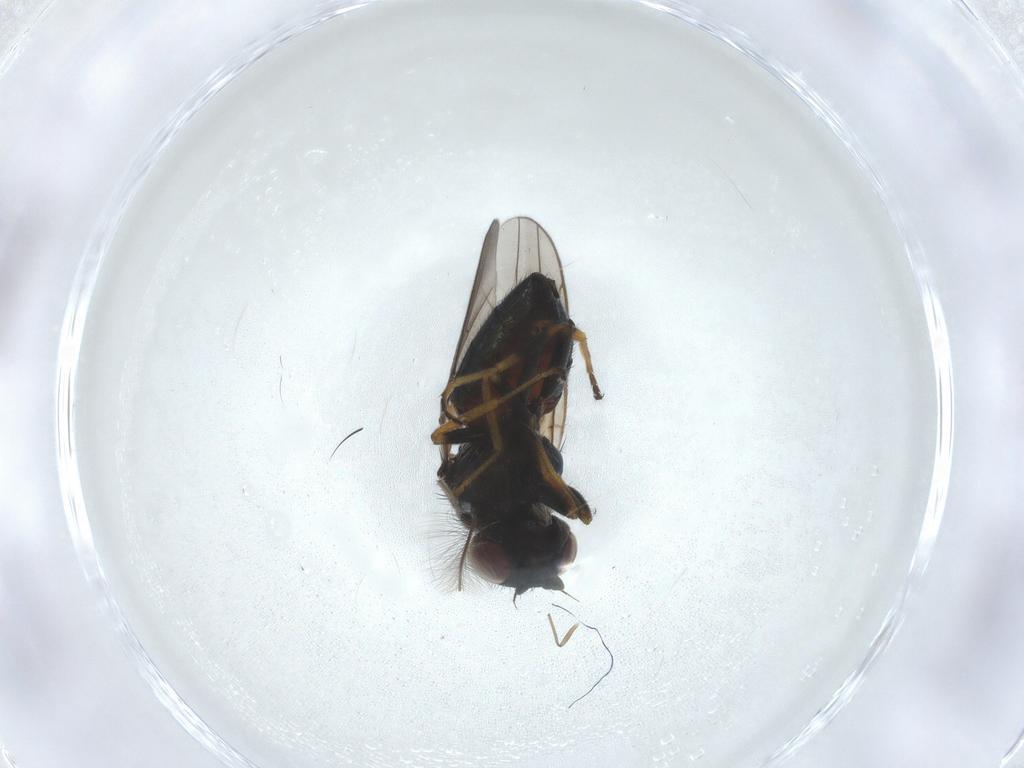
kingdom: Animalia
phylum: Arthropoda
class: Insecta
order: Diptera
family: Chloropidae
